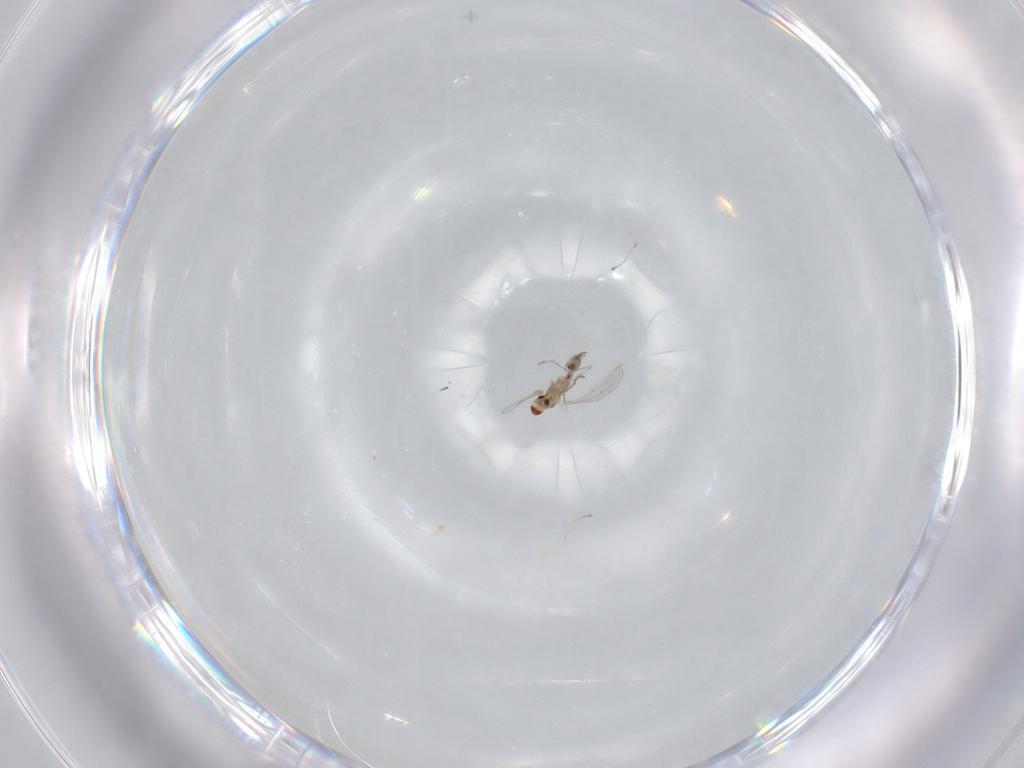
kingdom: Animalia
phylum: Arthropoda
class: Insecta
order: Diptera
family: Cecidomyiidae
